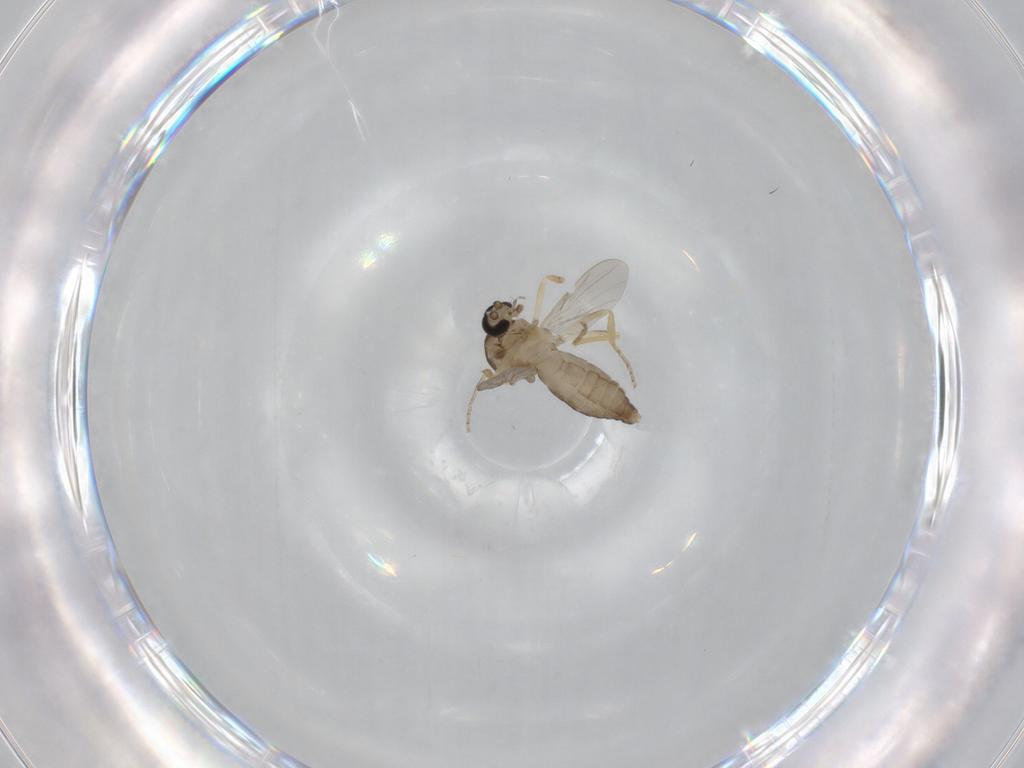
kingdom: Animalia
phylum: Arthropoda
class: Insecta
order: Diptera
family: Ceratopogonidae
